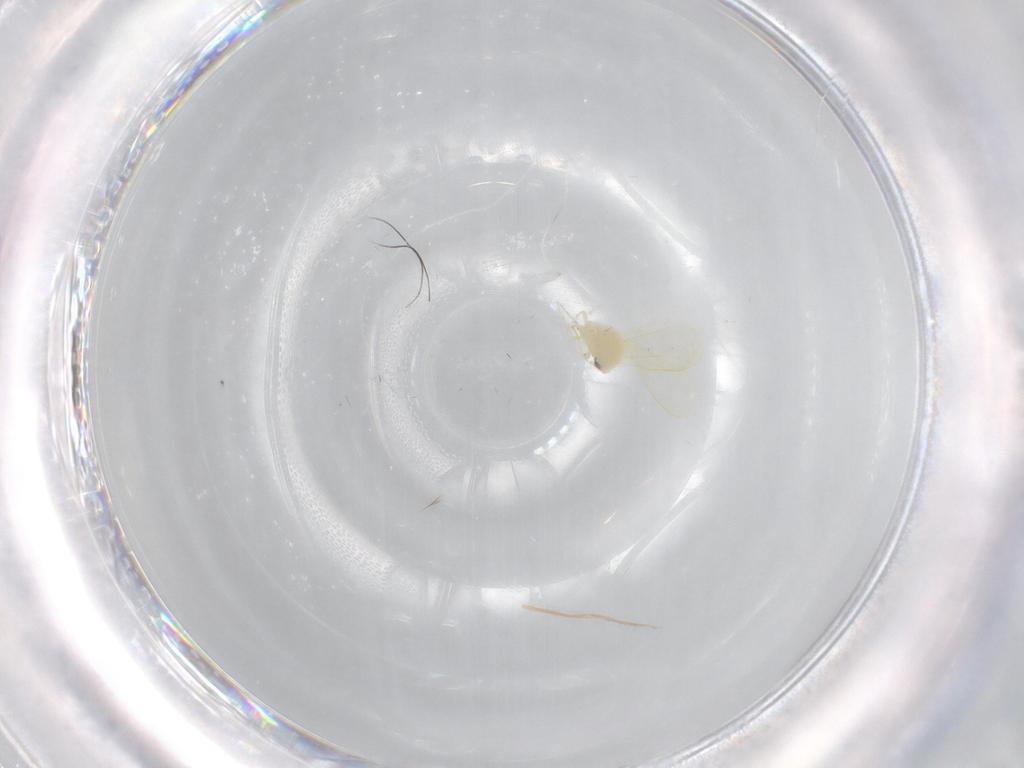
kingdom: Animalia
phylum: Arthropoda
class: Insecta
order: Hemiptera
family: Aleyrodidae
